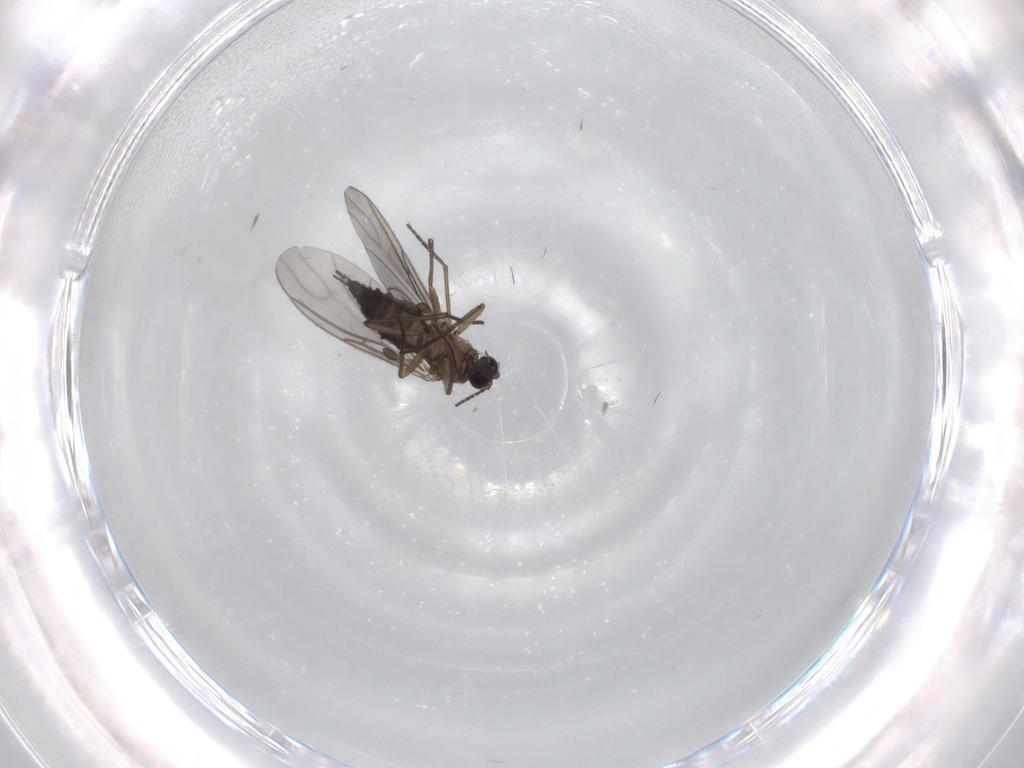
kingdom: Animalia
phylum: Arthropoda
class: Insecta
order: Diptera
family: Sciaridae
